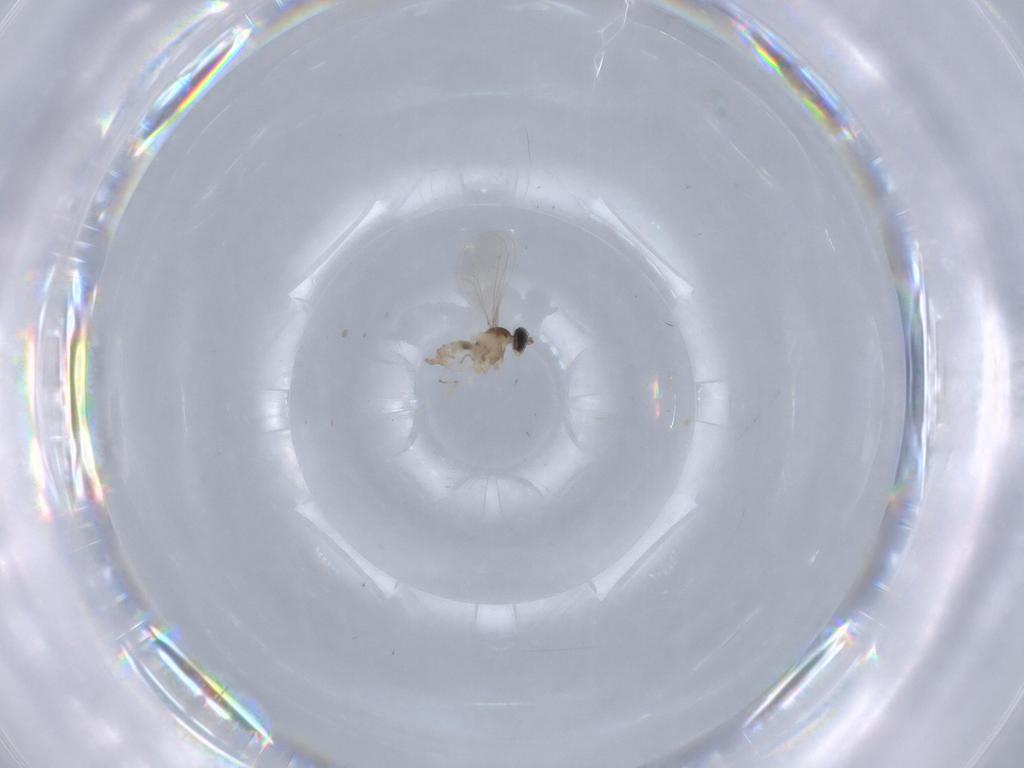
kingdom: Animalia
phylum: Arthropoda
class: Insecta
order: Diptera
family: Cecidomyiidae
